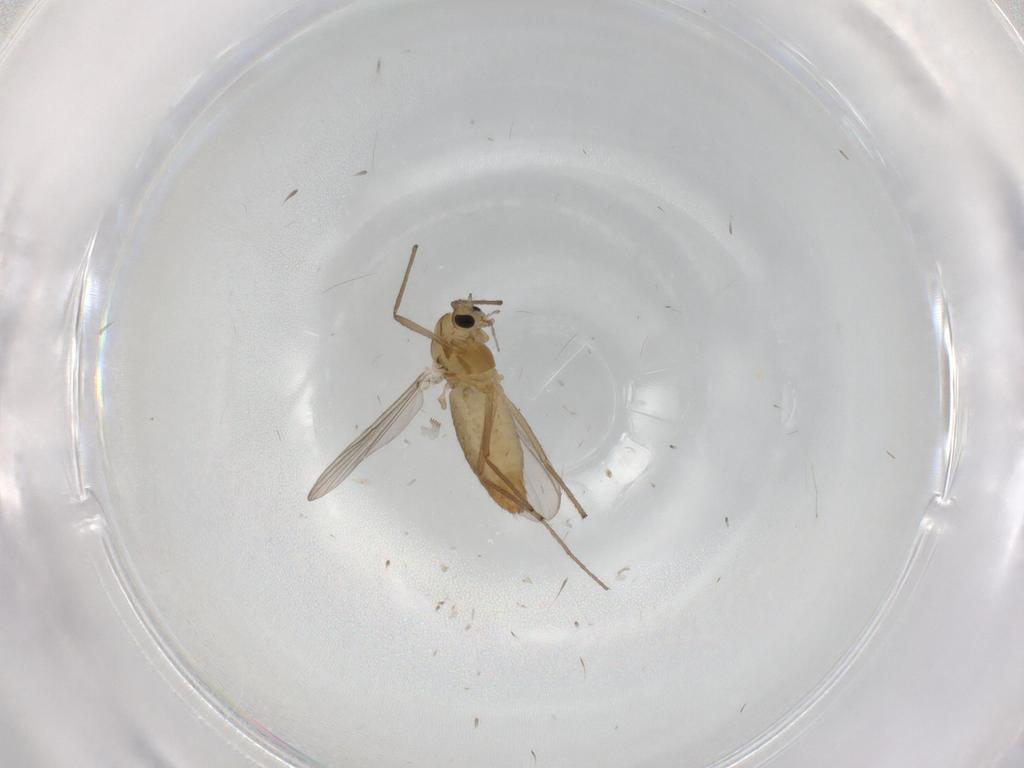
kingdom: Animalia
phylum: Arthropoda
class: Insecta
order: Diptera
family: Chironomidae
